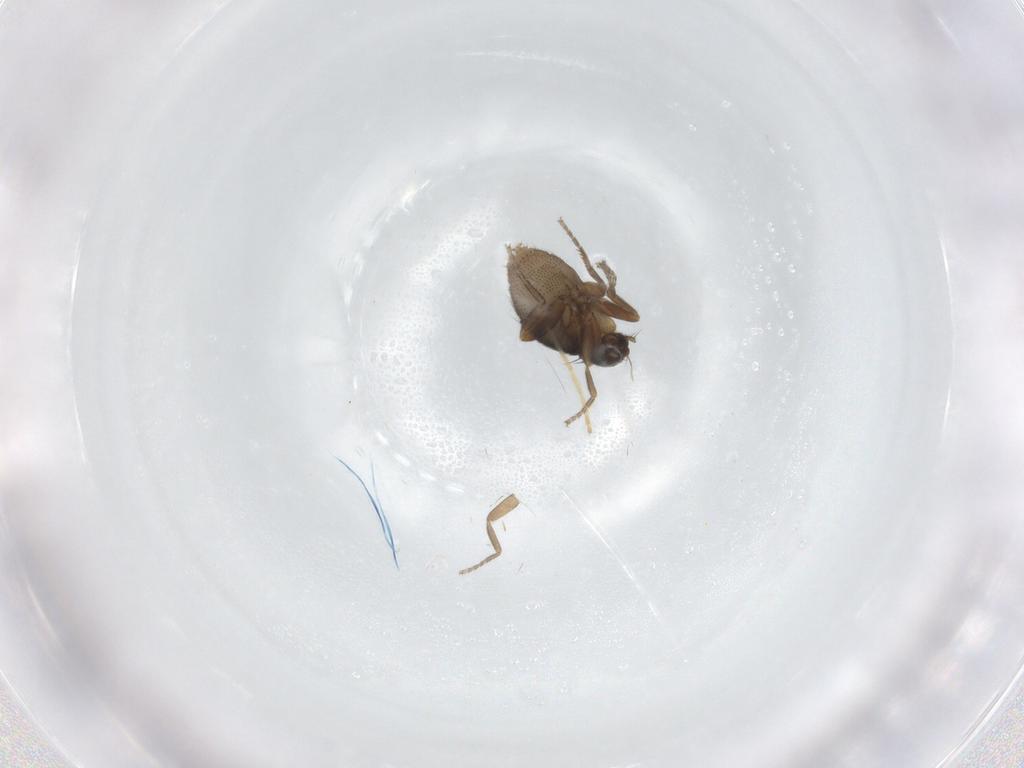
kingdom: Animalia
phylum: Arthropoda
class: Insecta
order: Diptera
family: Phoridae
